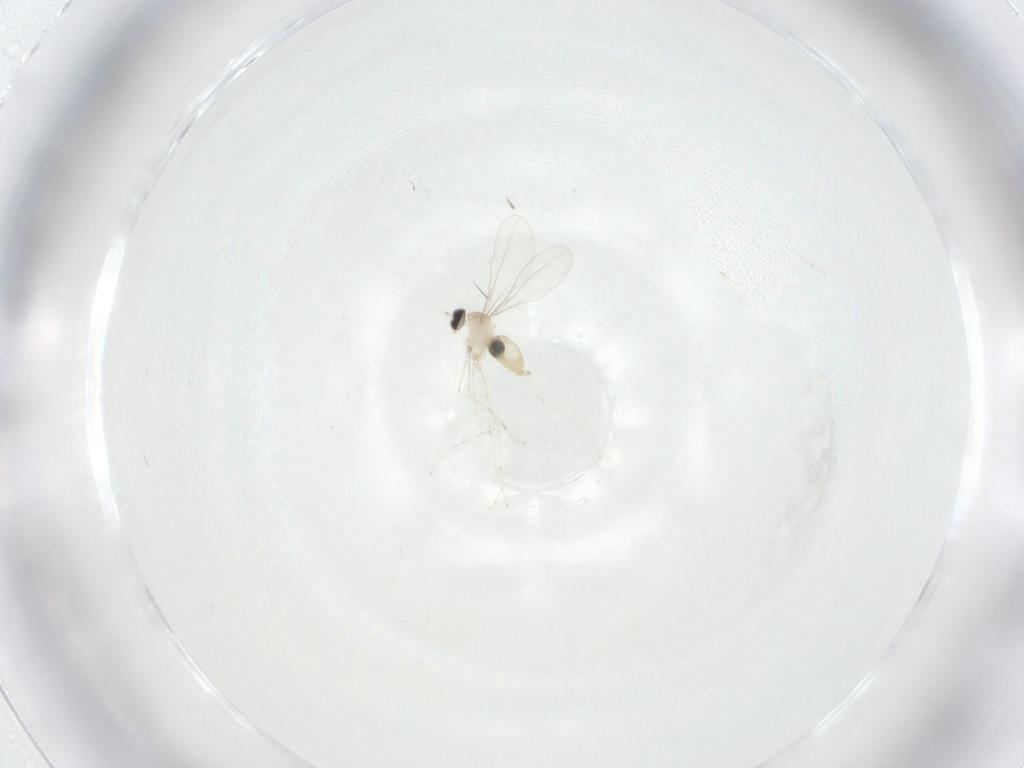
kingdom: Animalia
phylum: Arthropoda
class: Insecta
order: Diptera
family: Cecidomyiidae
